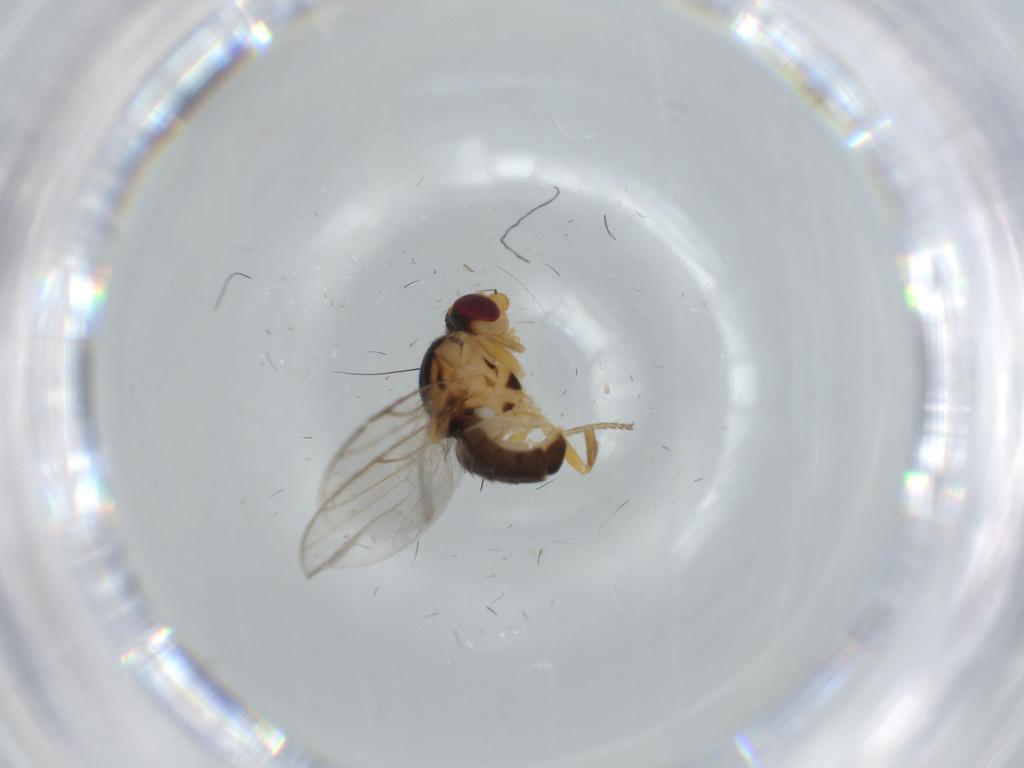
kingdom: Animalia
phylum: Arthropoda
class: Insecta
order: Diptera
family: Chloropidae
